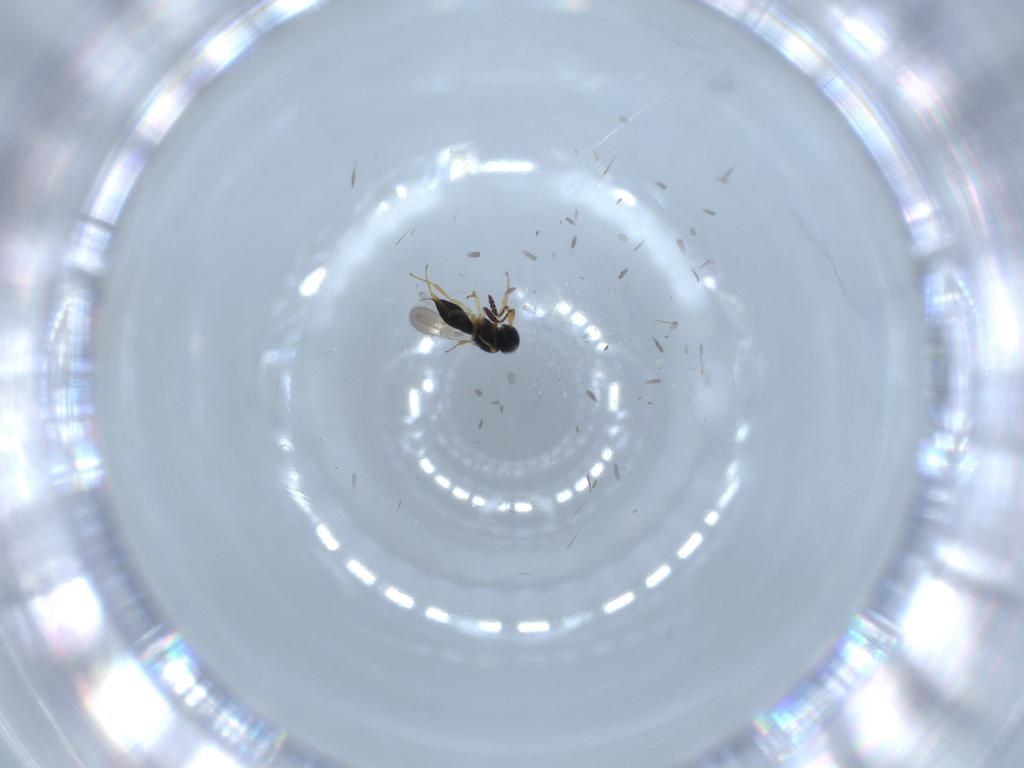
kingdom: Animalia
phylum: Arthropoda
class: Insecta
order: Hymenoptera
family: Scelionidae
